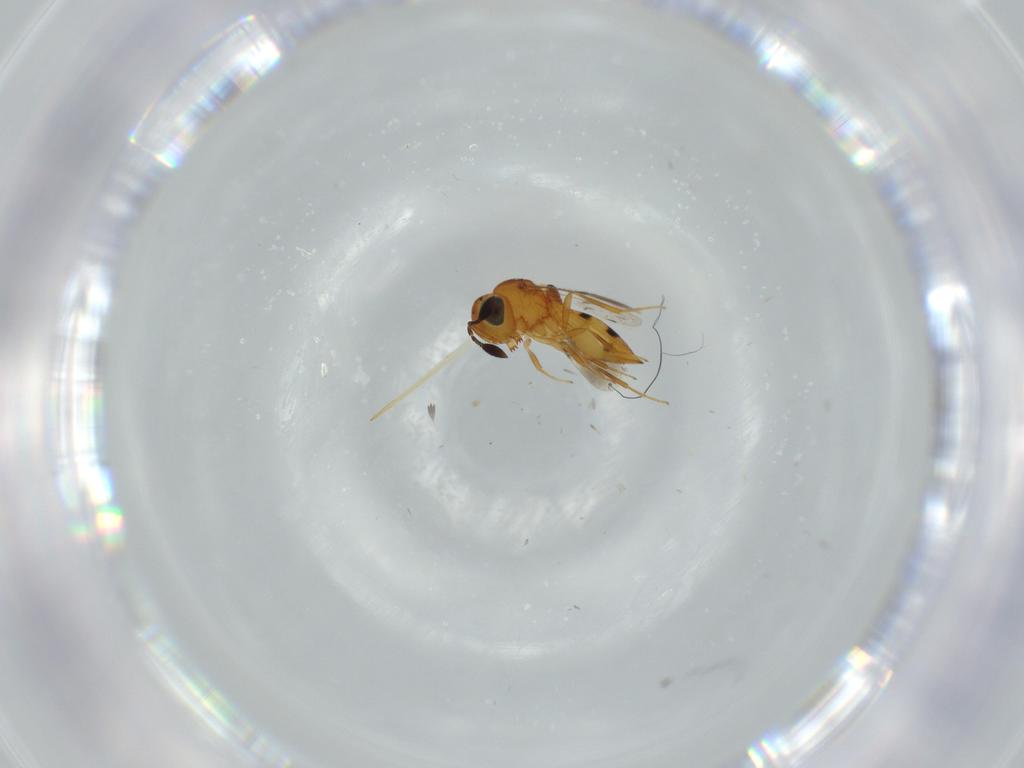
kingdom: Animalia
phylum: Arthropoda
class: Insecta
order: Hymenoptera
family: Scelionidae
